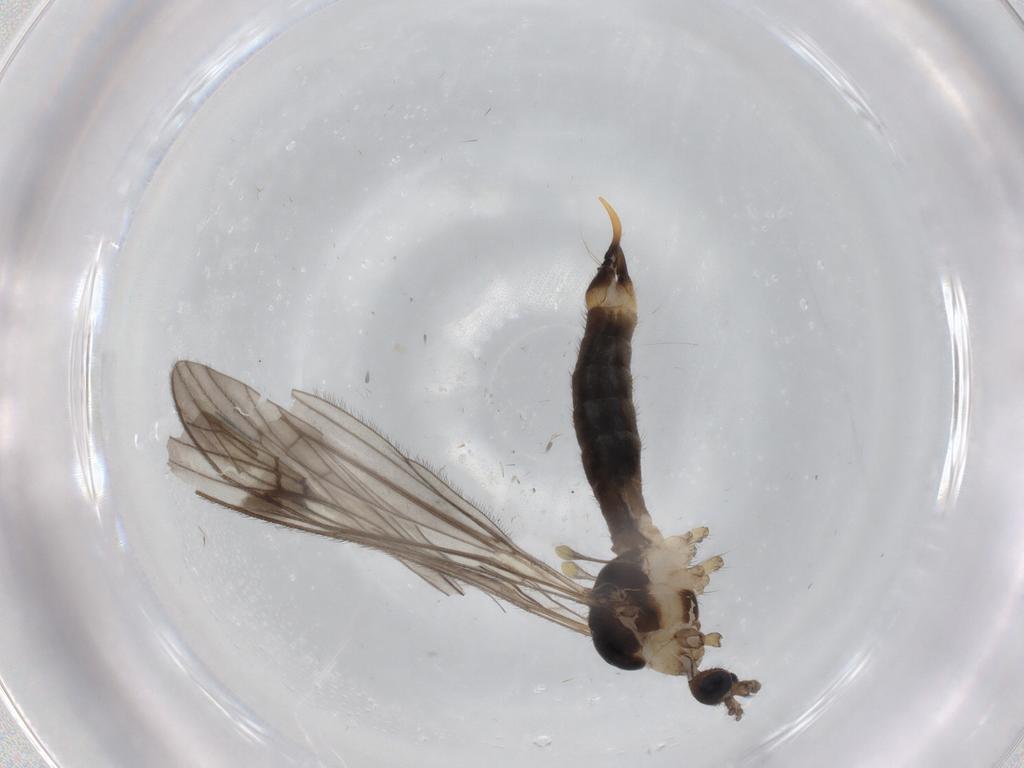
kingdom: Animalia
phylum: Arthropoda
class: Insecta
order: Diptera
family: Limoniidae
